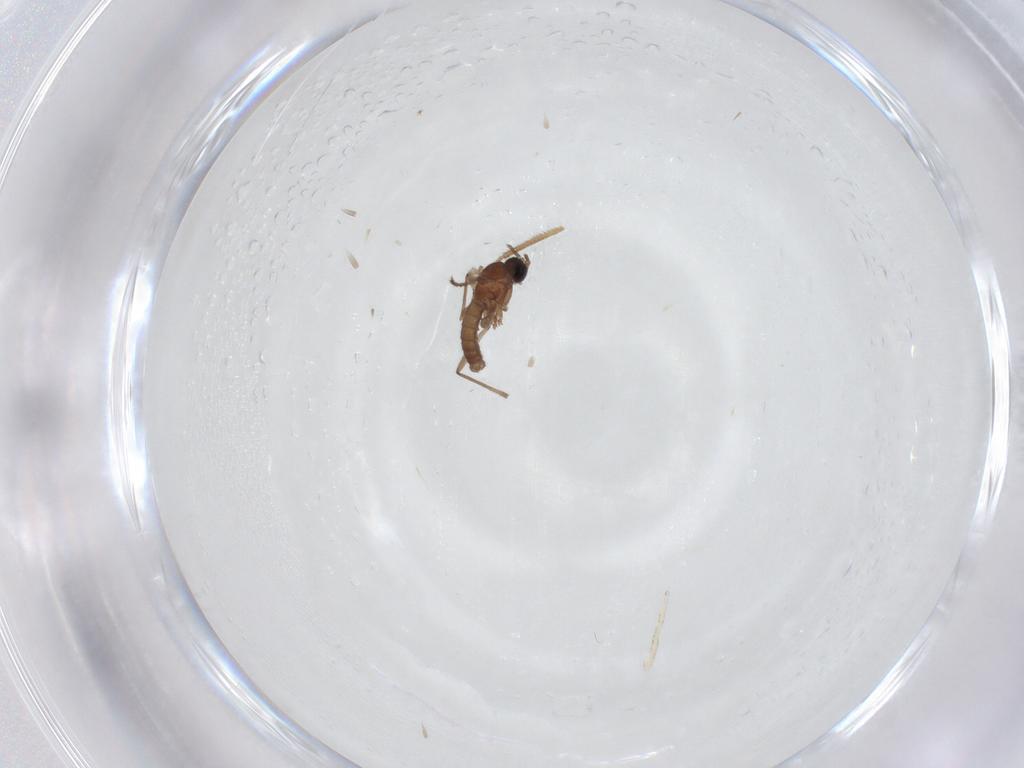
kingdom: Animalia
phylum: Arthropoda
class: Insecta
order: Diptera
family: Sciaridae
